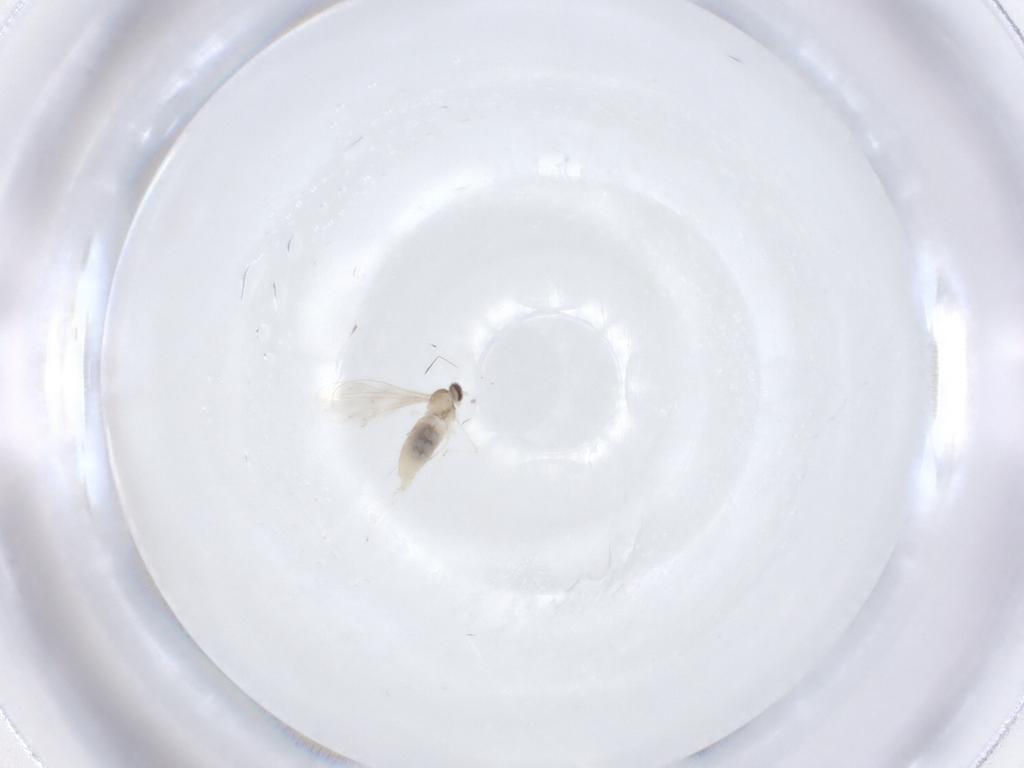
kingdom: Animalia
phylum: Arthropoda
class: Insecta
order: Diptera
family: Cecidomyiidae
